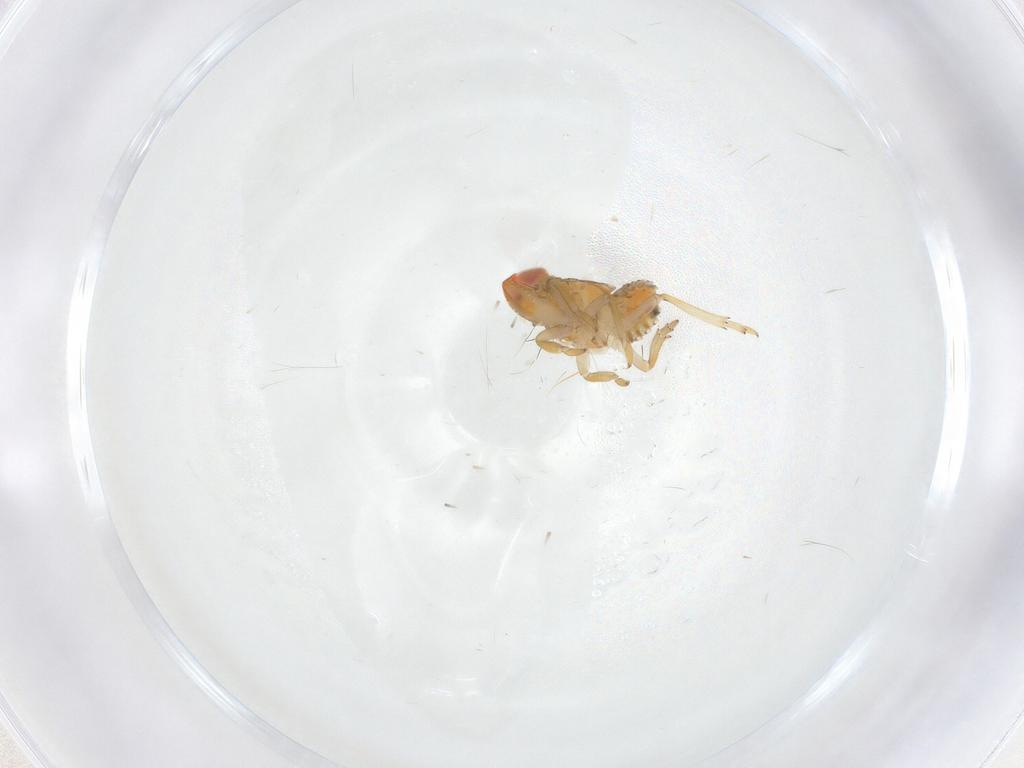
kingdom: Animalia
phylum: Arthropoda
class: Insecta
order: Hemiptera
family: Fulgoroidea_incertae_sedis
